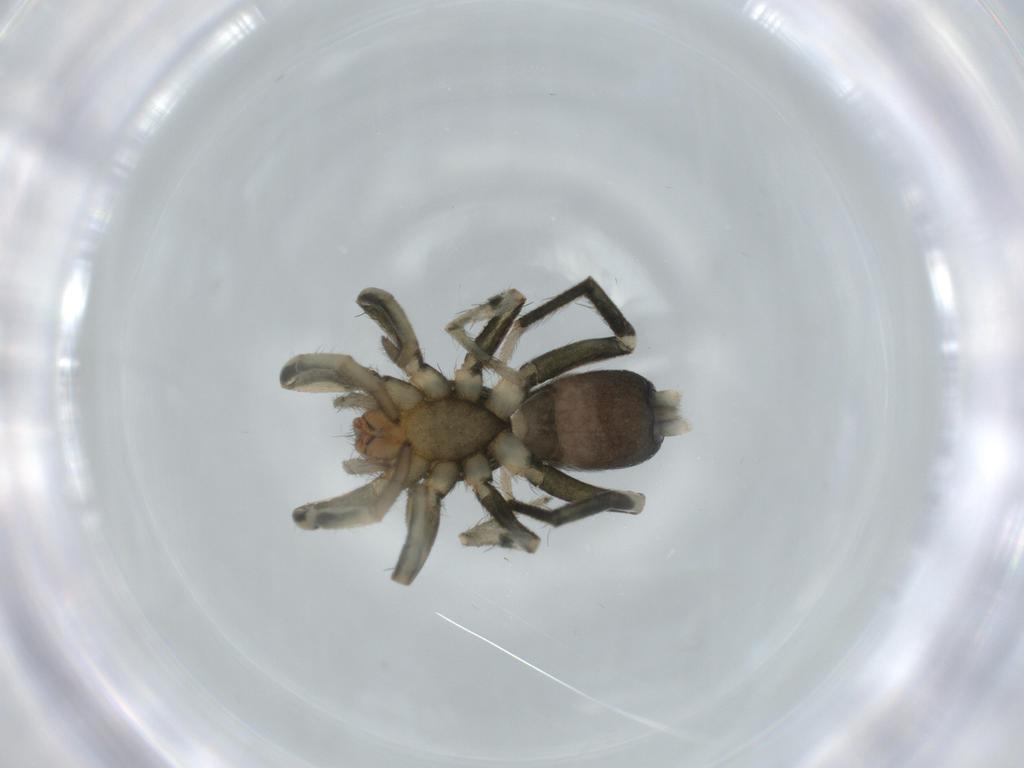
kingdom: Animalia
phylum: Arthropoda
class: Arachnida
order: Araneae
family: Gnaphosidae
